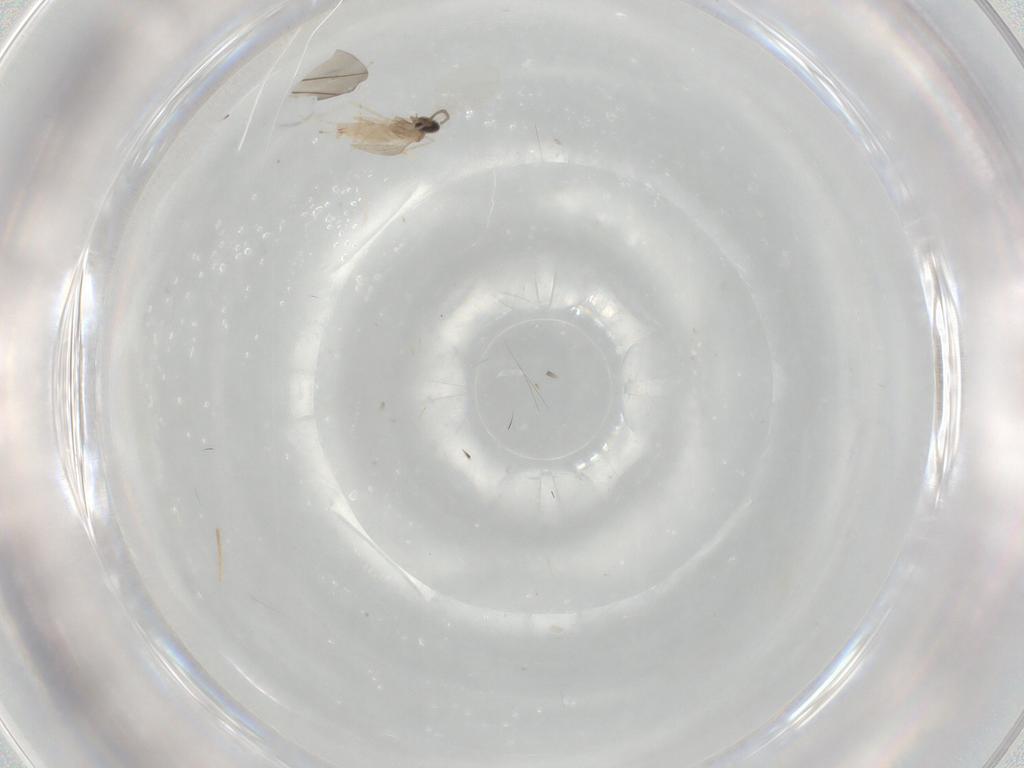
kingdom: Animalia
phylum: Arthropoda
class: Insecta
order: Diptera
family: Cecidomyiidae
